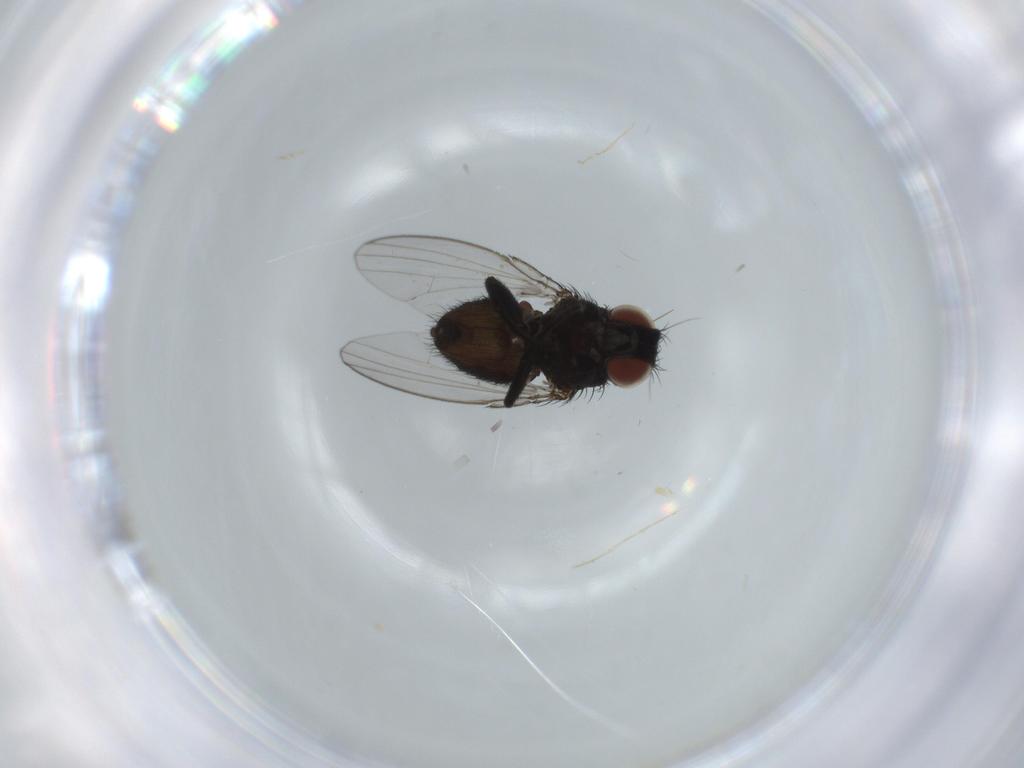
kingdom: Animalia
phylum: Arthropoda
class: Insecta
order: Diptera
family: Milichiidae
